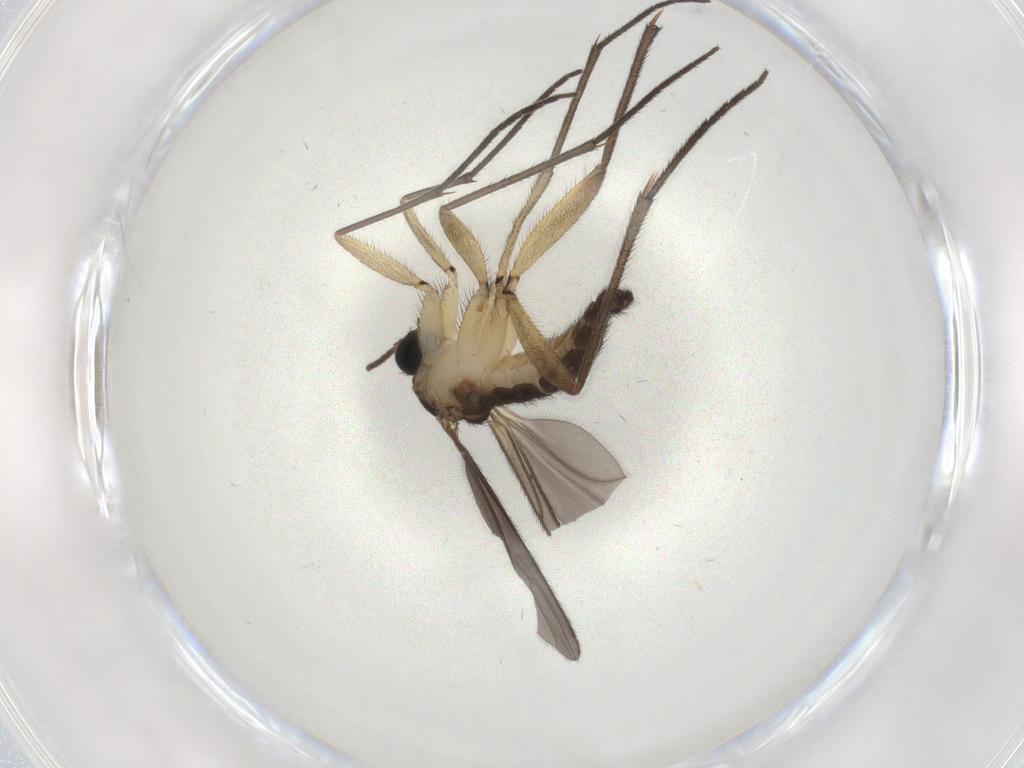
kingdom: Animalia
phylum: Arthropoda
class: Insecta
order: Diptera
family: Sciaridae
